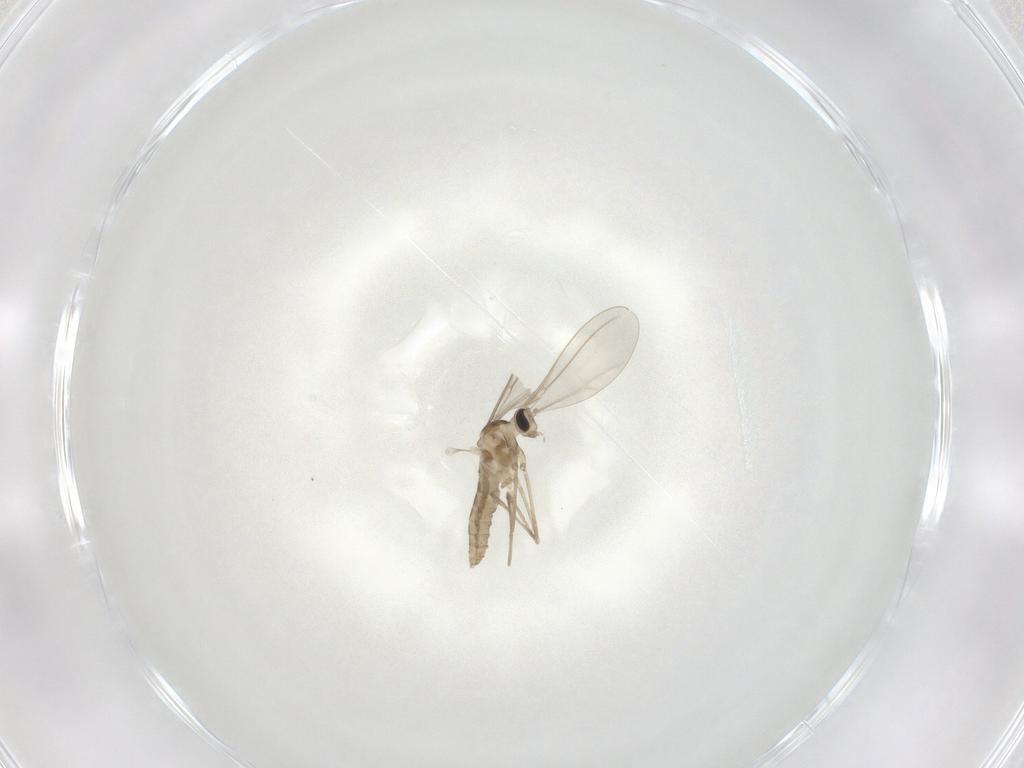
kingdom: Animalia
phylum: Arthropoda
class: Insecta
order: Diptera
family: Cecidomyiidae
